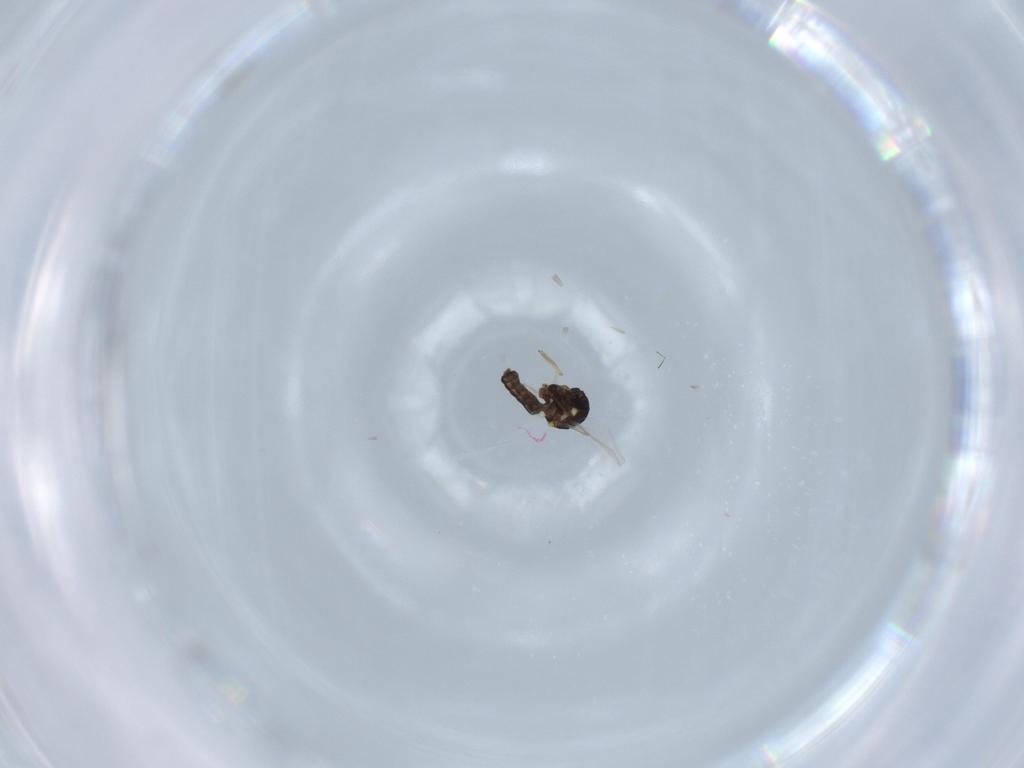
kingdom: Animalia
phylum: Arthropoda
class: Insecta
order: Diptera
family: Ceratopogonidae
